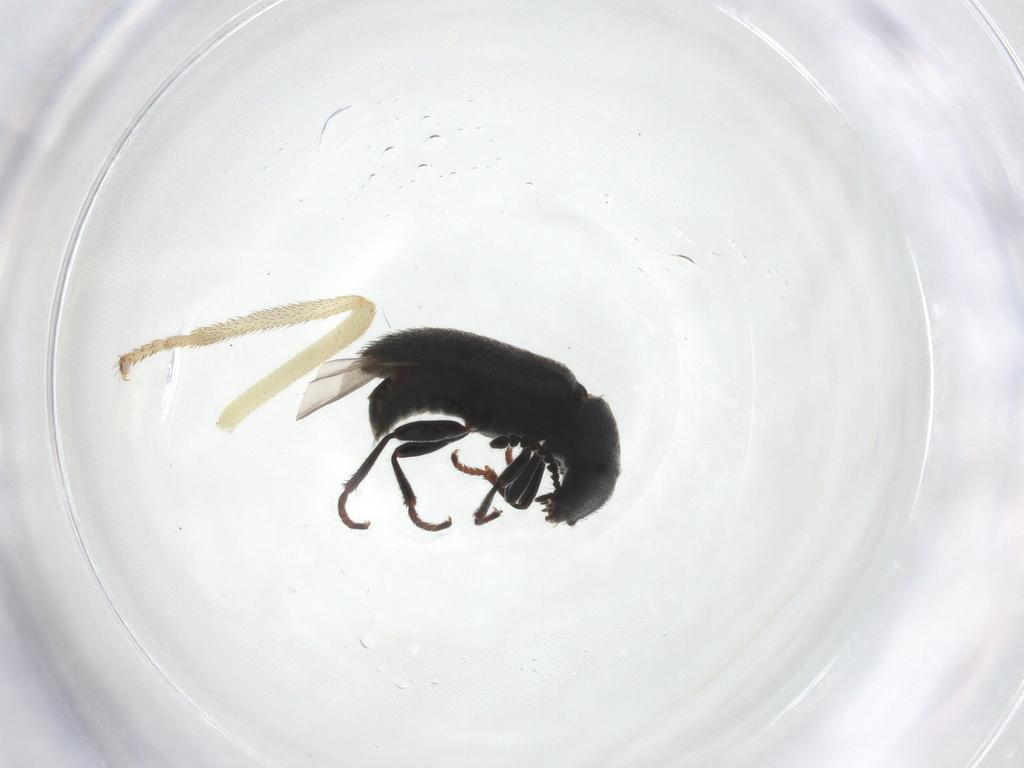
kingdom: Animalia
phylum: Arthropoda
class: Insecta
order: Coleoptera
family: Melyridae
